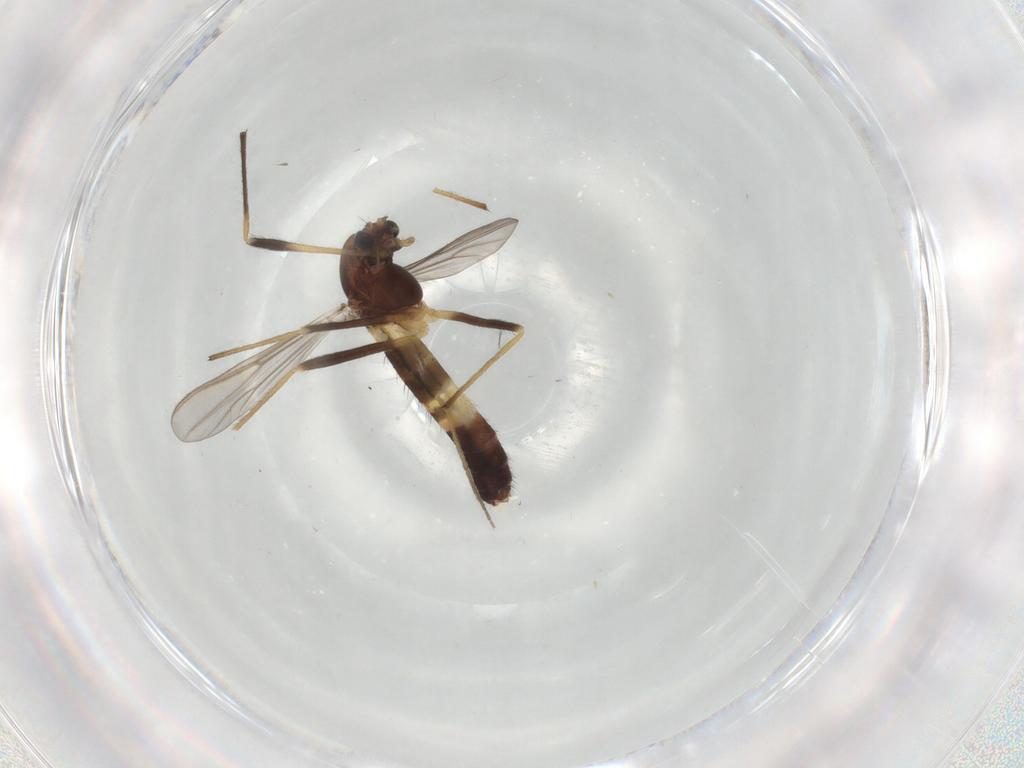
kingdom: Animalia
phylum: Arthropoda
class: Insecta
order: Diptera
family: Chironomidae
